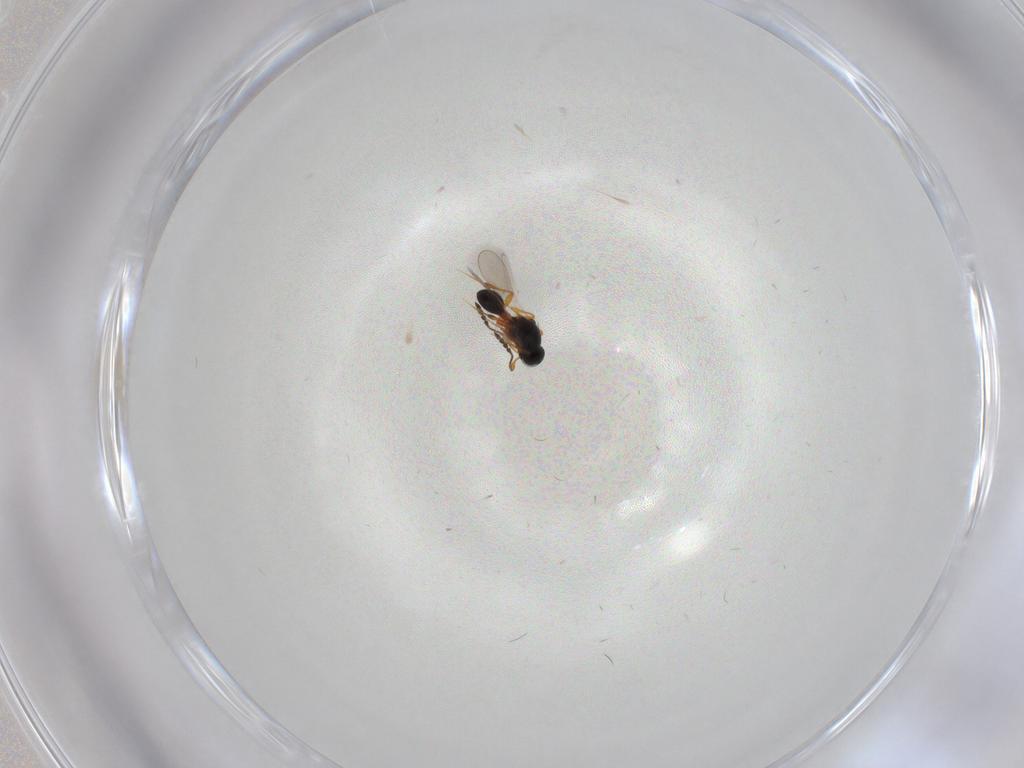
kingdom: Animalia
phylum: Arthropoda
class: Insecta
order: Hymenoptera
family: Platygastridae
